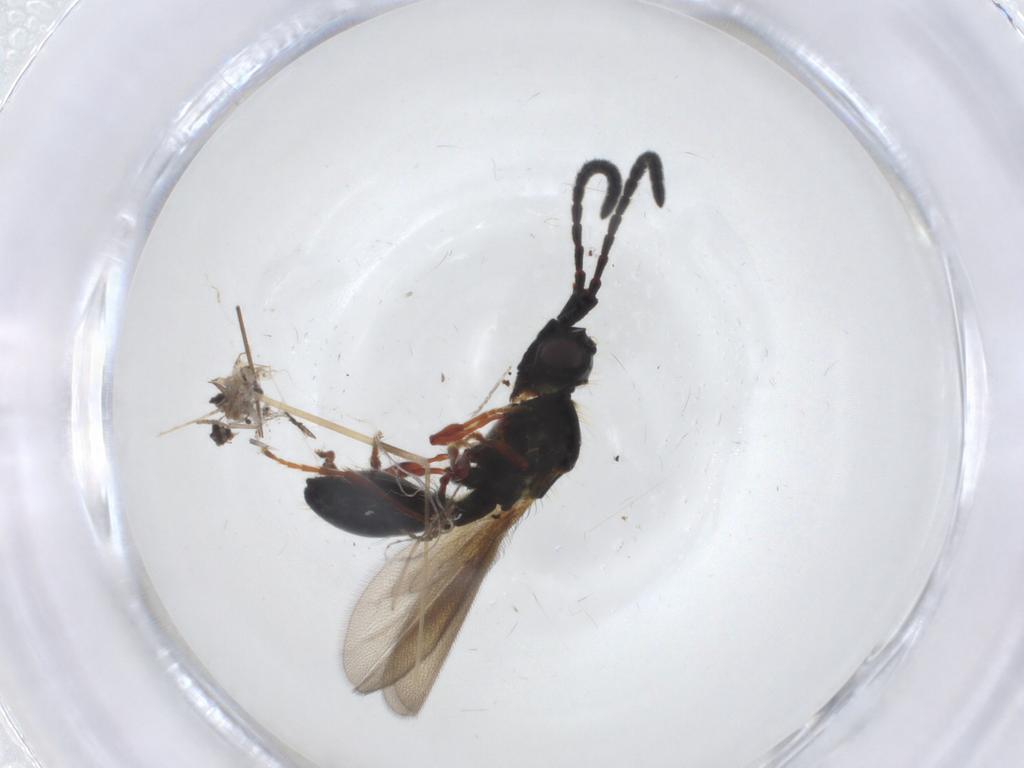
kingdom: Animalia
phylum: Arthropoda
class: Insecta
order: Hymenoptera
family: Diapriidae
